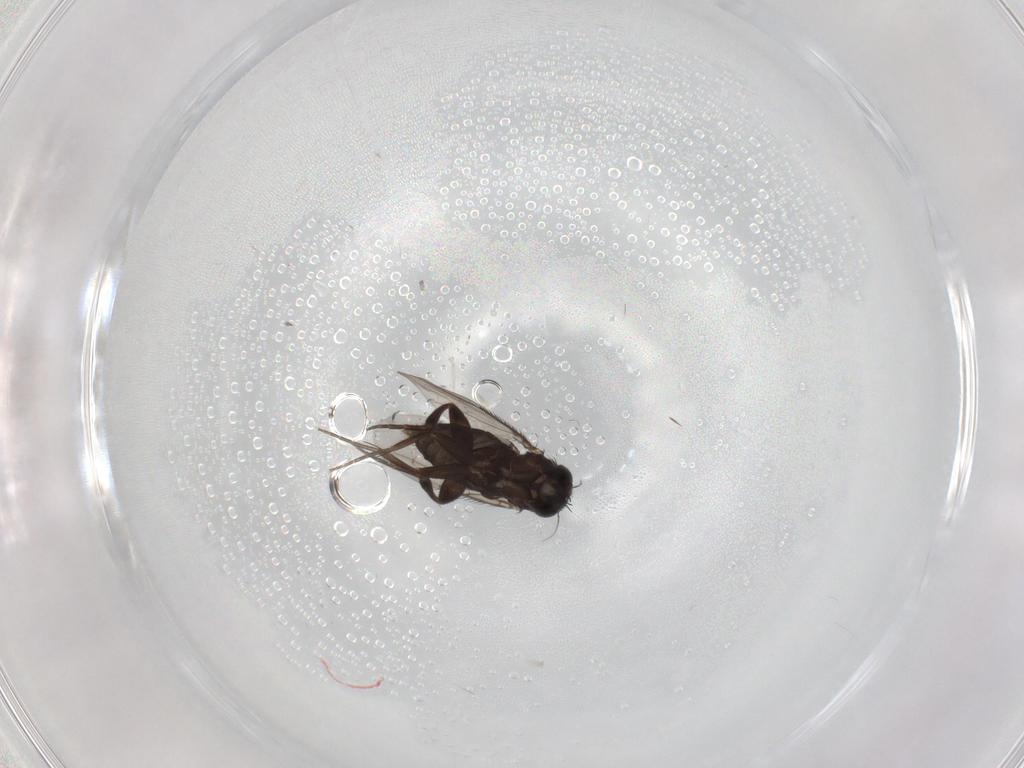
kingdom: Animalia
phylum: Arthropoda
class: Insecta
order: Diptera
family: Phoridae
